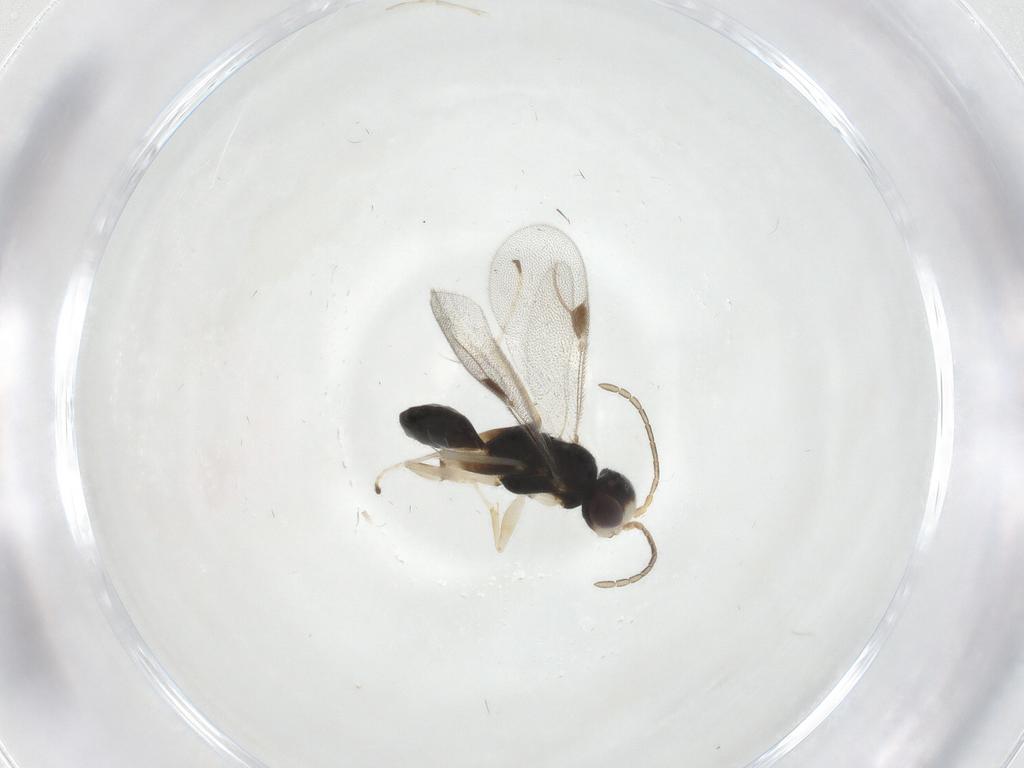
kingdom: Animalia
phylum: Arthropoda
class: Insecta
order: Hymenoptera
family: Dryinidae
